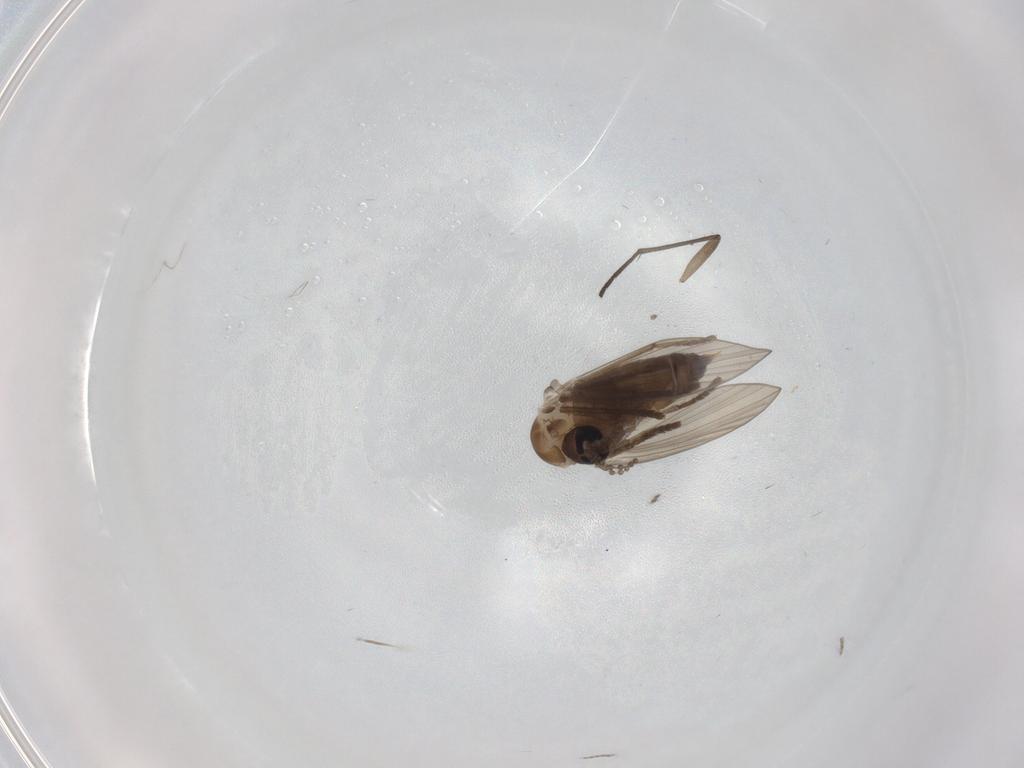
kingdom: Animalia
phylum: Arthropoda
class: Insecta
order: Diptera
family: Psychodidae
